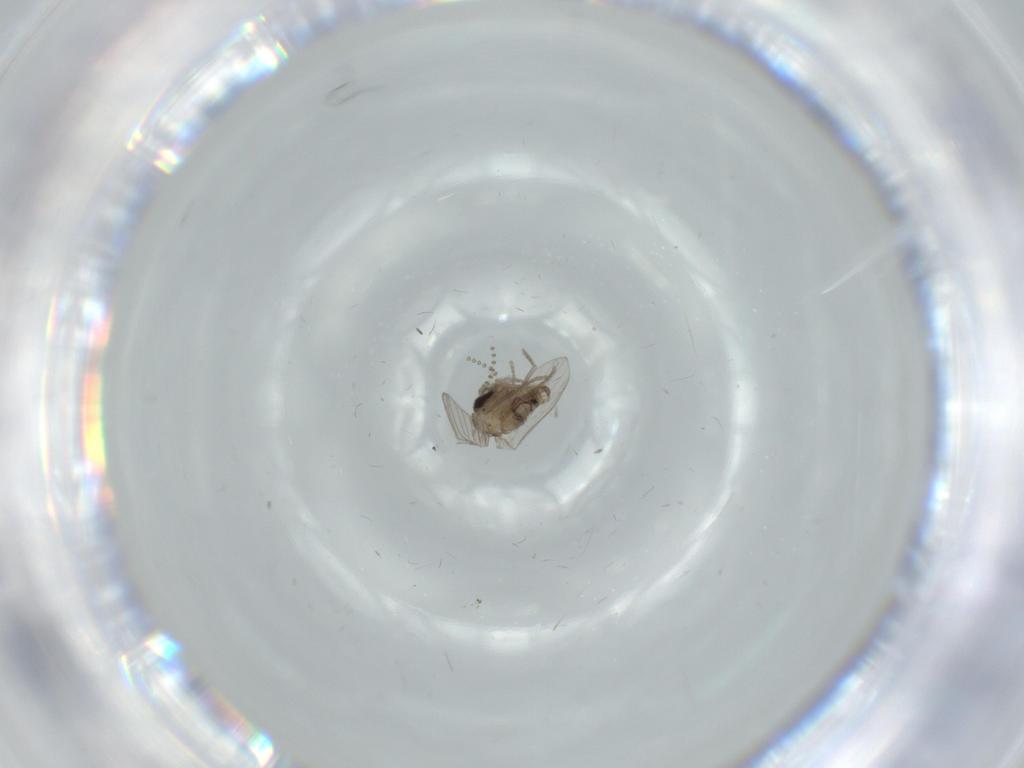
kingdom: Animalia
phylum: Arthropoda
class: Insecta
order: Diptera
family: Psychodidae
